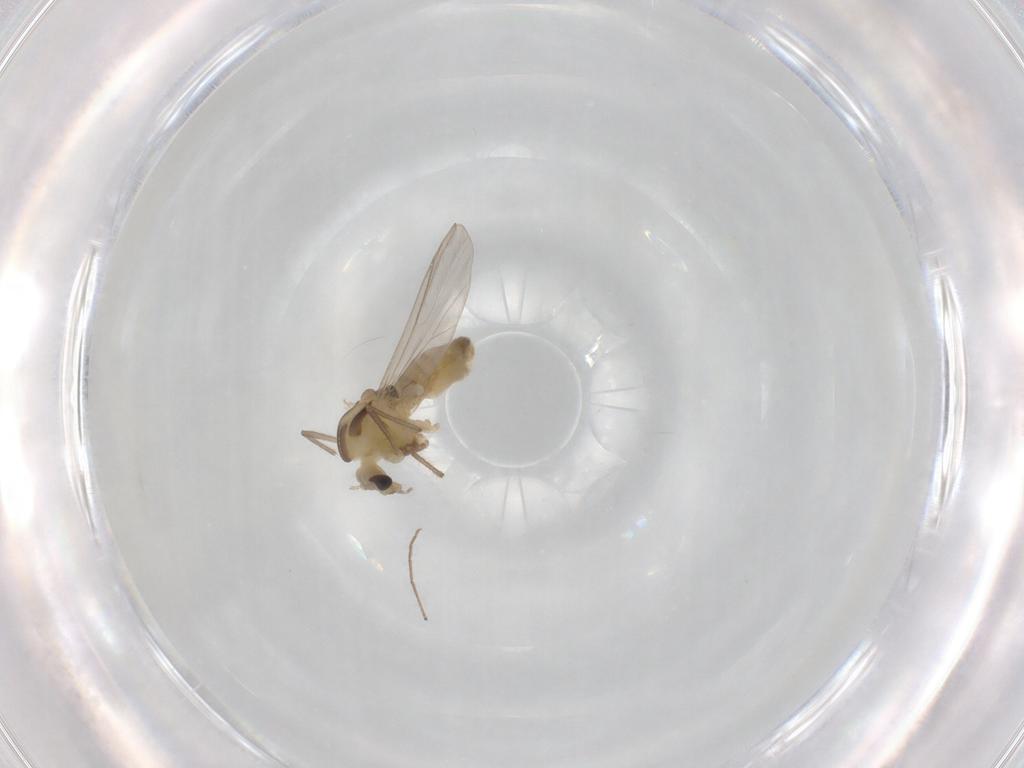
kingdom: Animalia
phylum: Arthropoda
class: Insecta
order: Diptera
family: Chironomidae
